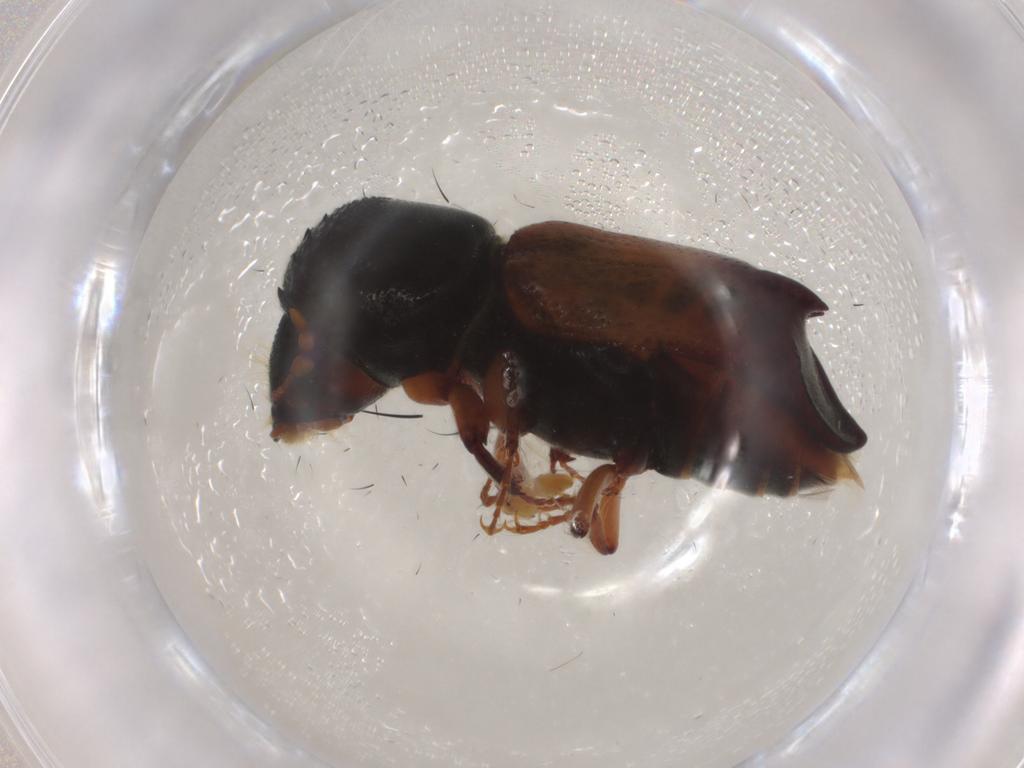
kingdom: Animalia
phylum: Arthropoda
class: Insecta
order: Coleoptera
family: Bostrichidae
